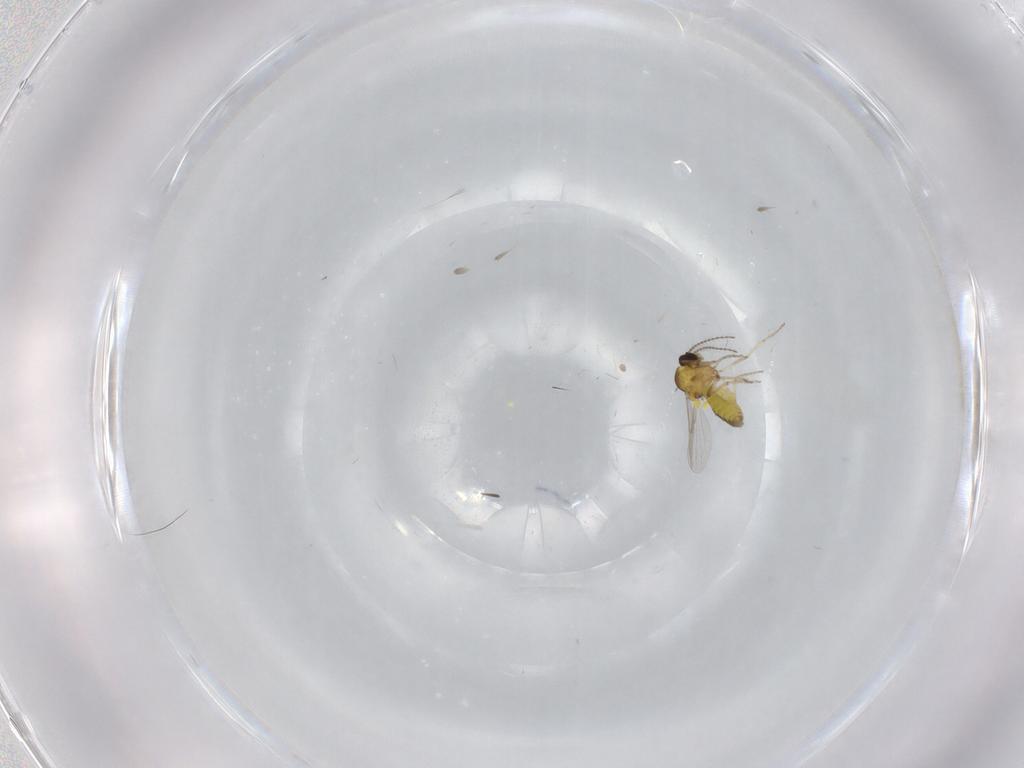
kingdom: Animalia
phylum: Arthropoda
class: Insecta
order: Diptera
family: Ceratopogonidae
